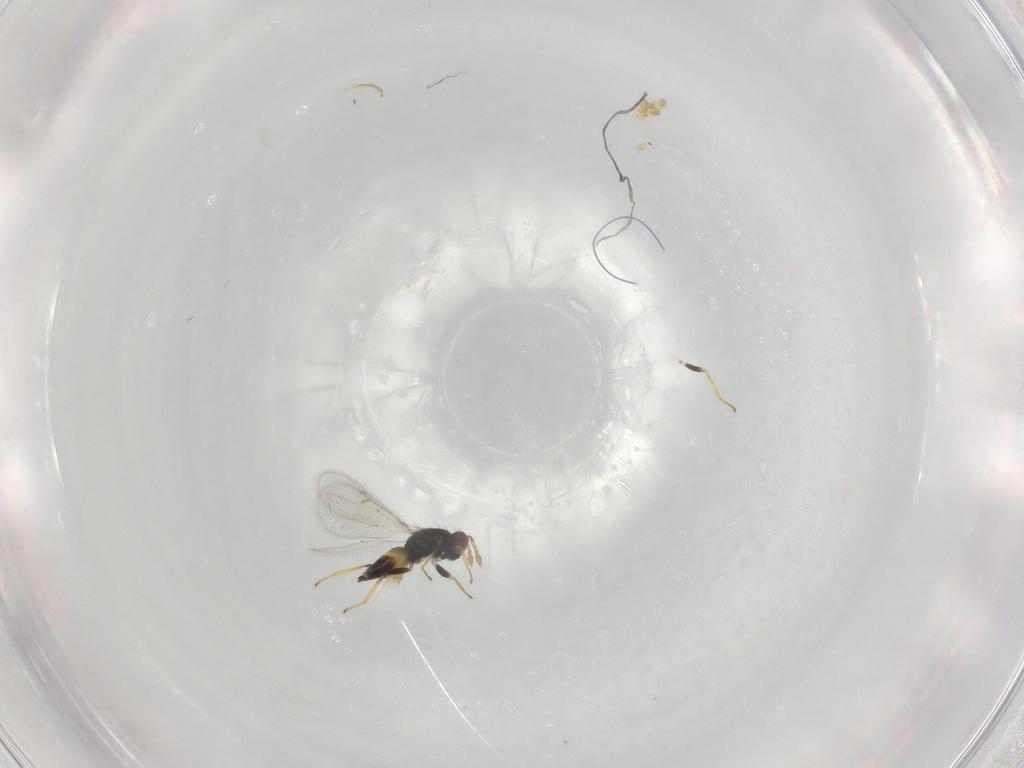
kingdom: Animalia
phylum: Arthropoda
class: Insecta
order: Hymenoptera
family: Eulophidae
